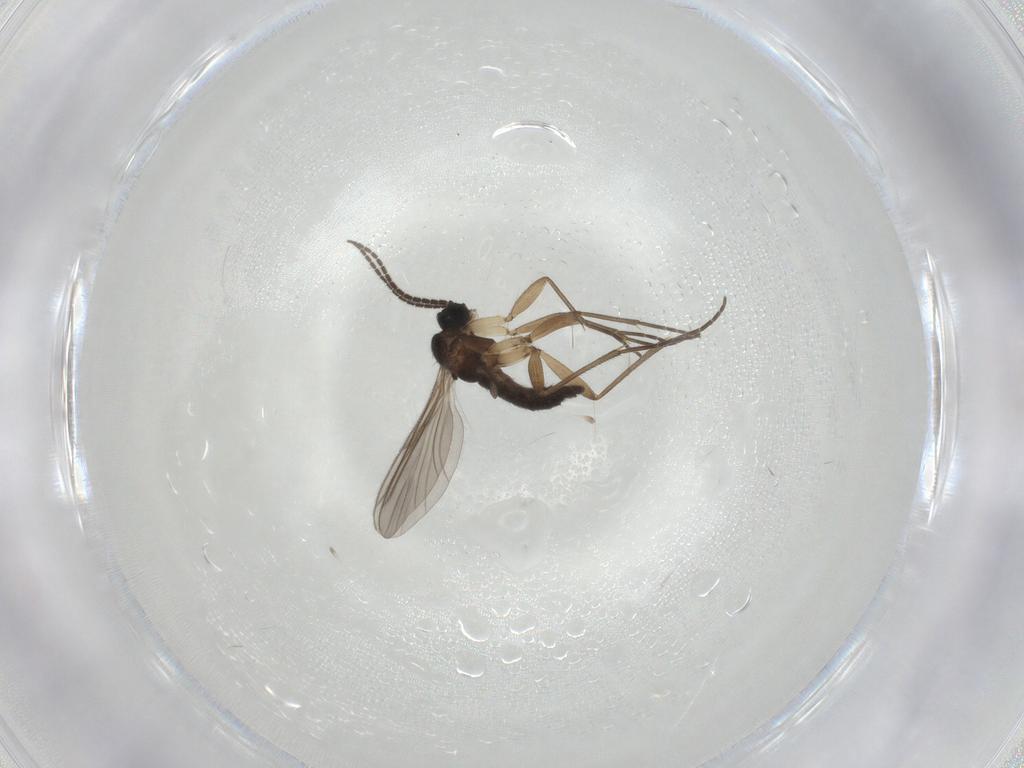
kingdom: Animalia
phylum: Arthropoda
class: Insecta
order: Diptera
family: Sciaridae
